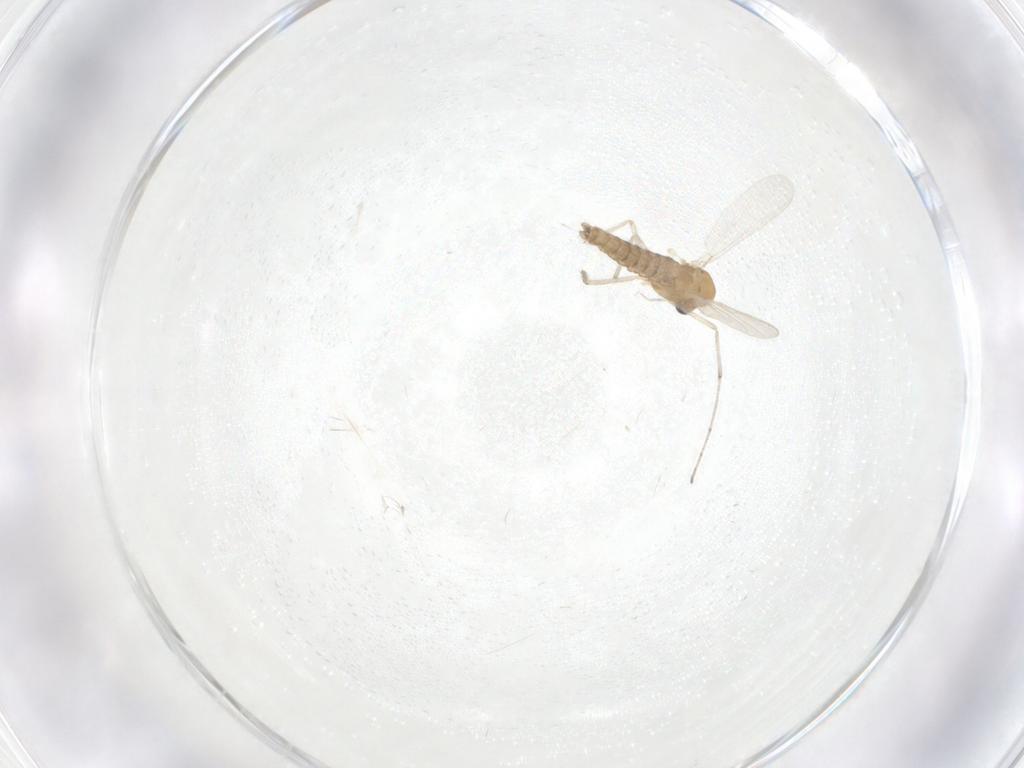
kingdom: Animalia
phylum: Arthropoda
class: Insecta
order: Diptera
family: Chironomidae
